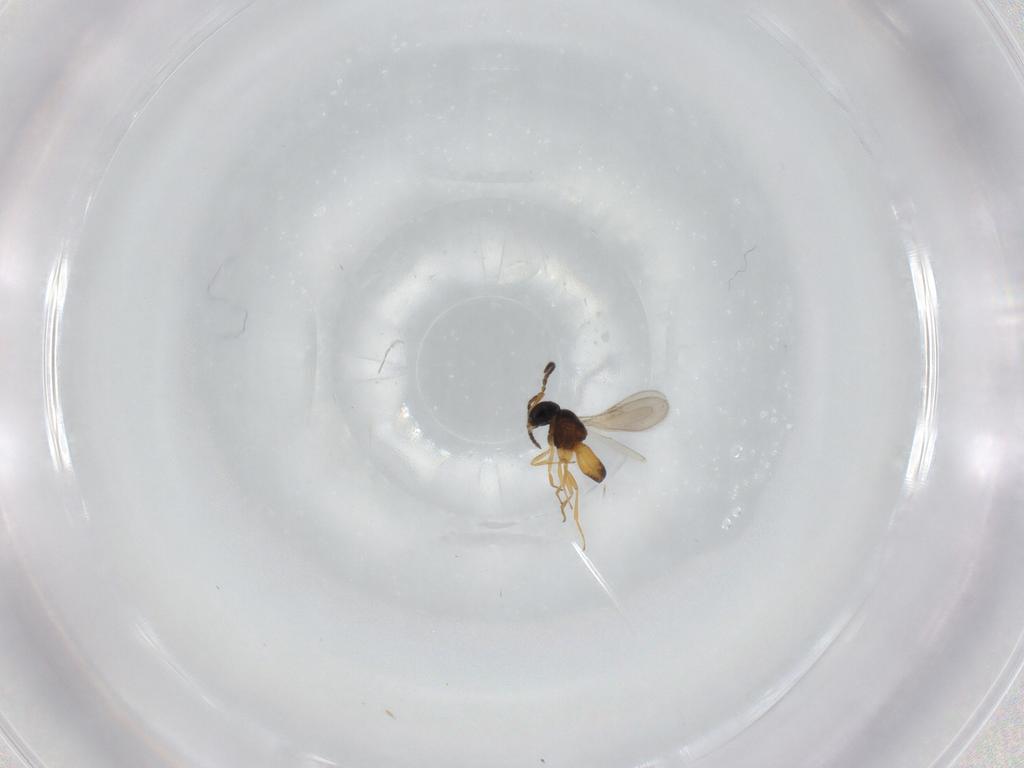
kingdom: Animalia
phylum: Arthropoda
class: Insecta
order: Hymenoptera
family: Scelionidae
